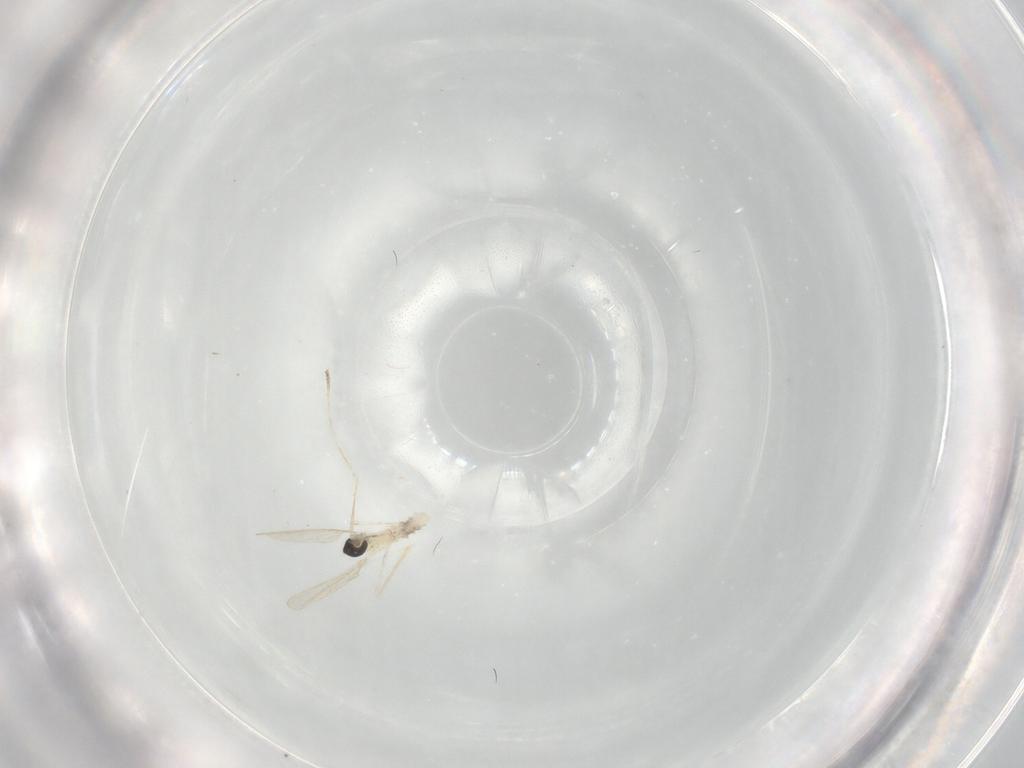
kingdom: Animalia
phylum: Arthropoda
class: Insecta
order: Diptera
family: Cecidomyiidae
